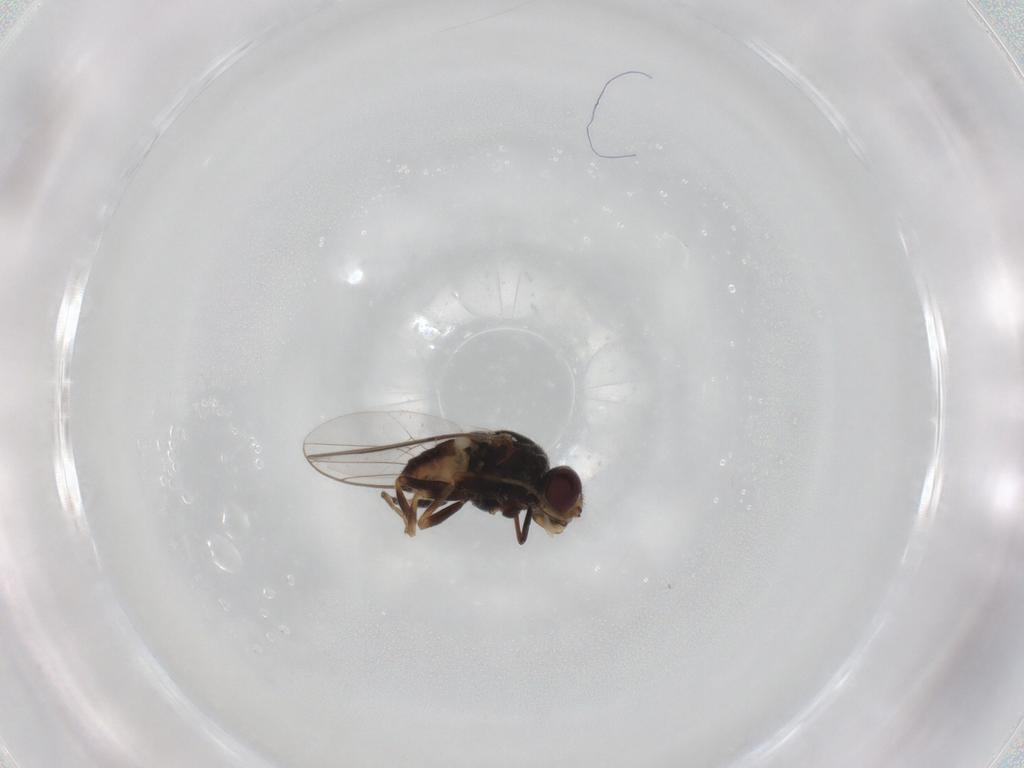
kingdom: Animalia
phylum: Arthropoda
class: Insecta
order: Diptera
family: Chloropidae
